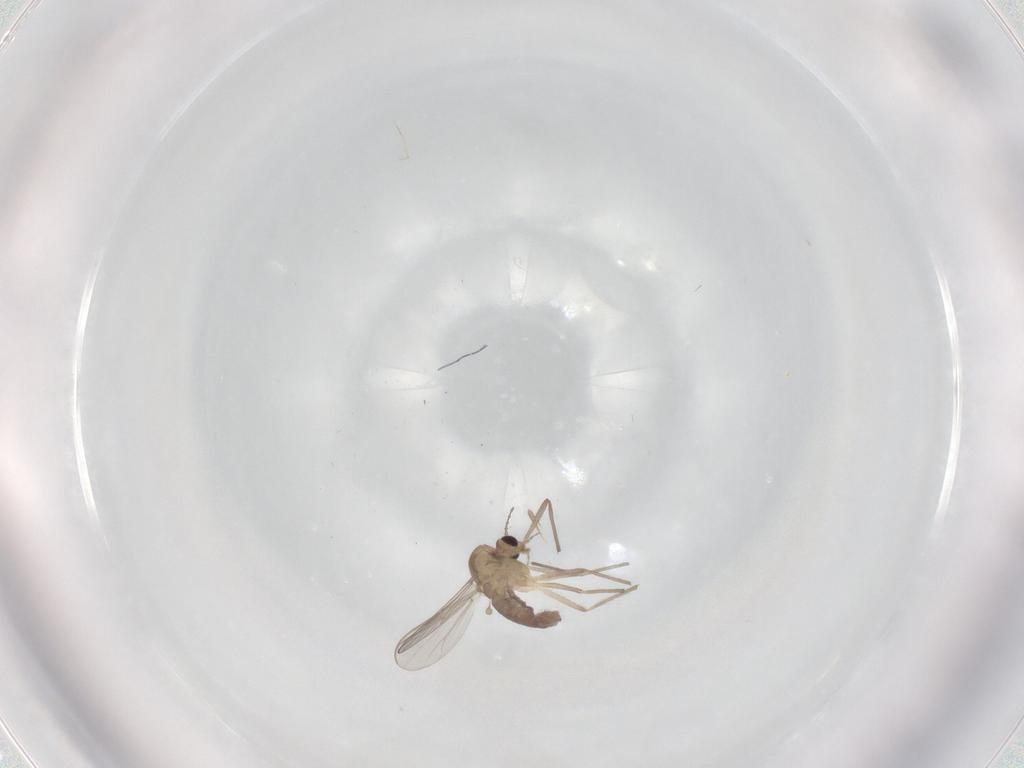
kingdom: Animalia
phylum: Arthropoda
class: Insecta
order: Diptera
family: Chironomidae
